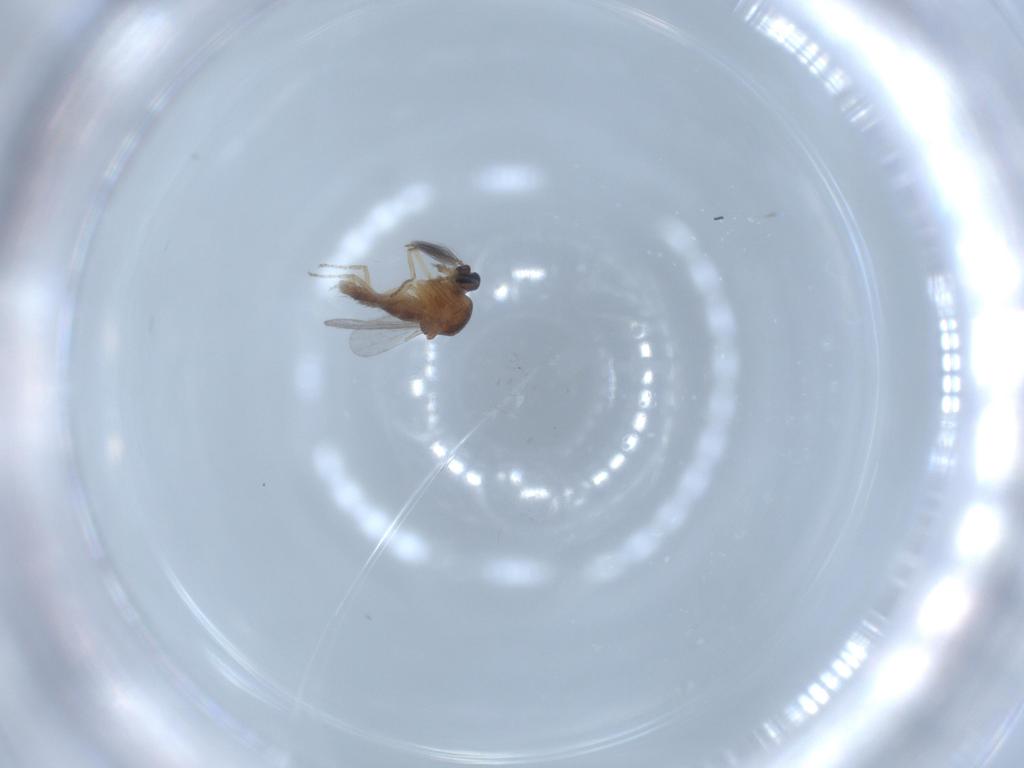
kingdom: Animalia
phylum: Arthropoda
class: Insecta
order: Diptera
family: Ceratopogonidae
